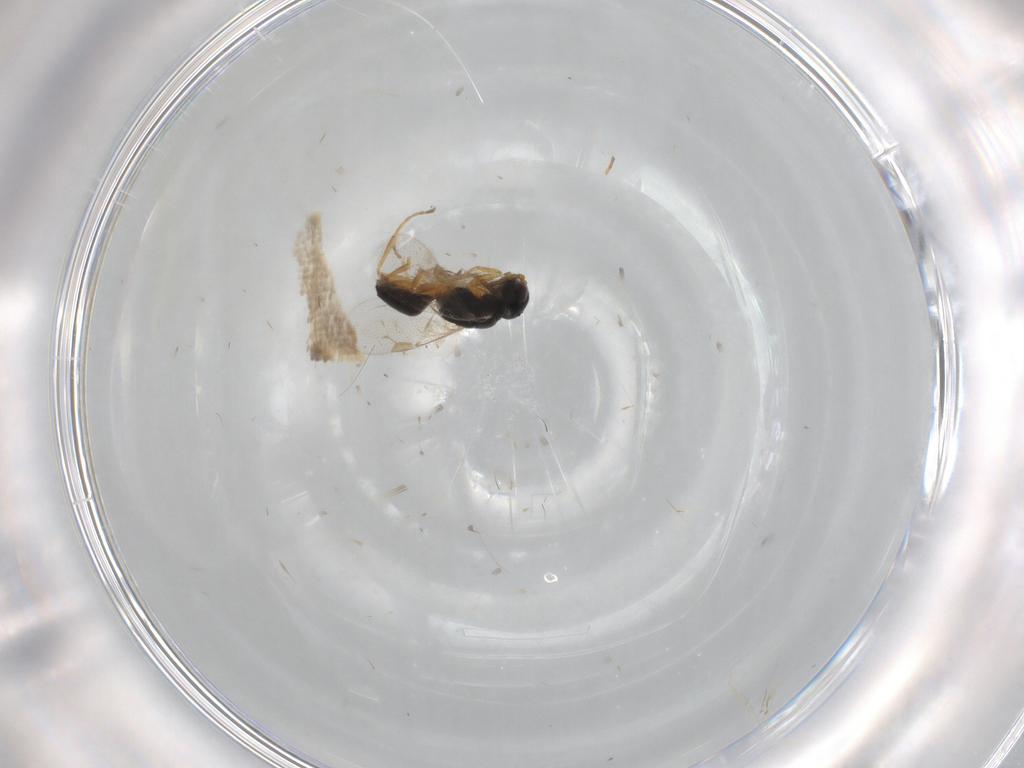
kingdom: Animalia
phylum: Arthropoda
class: Insecta
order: Hymenoptera
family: Dryinidae
